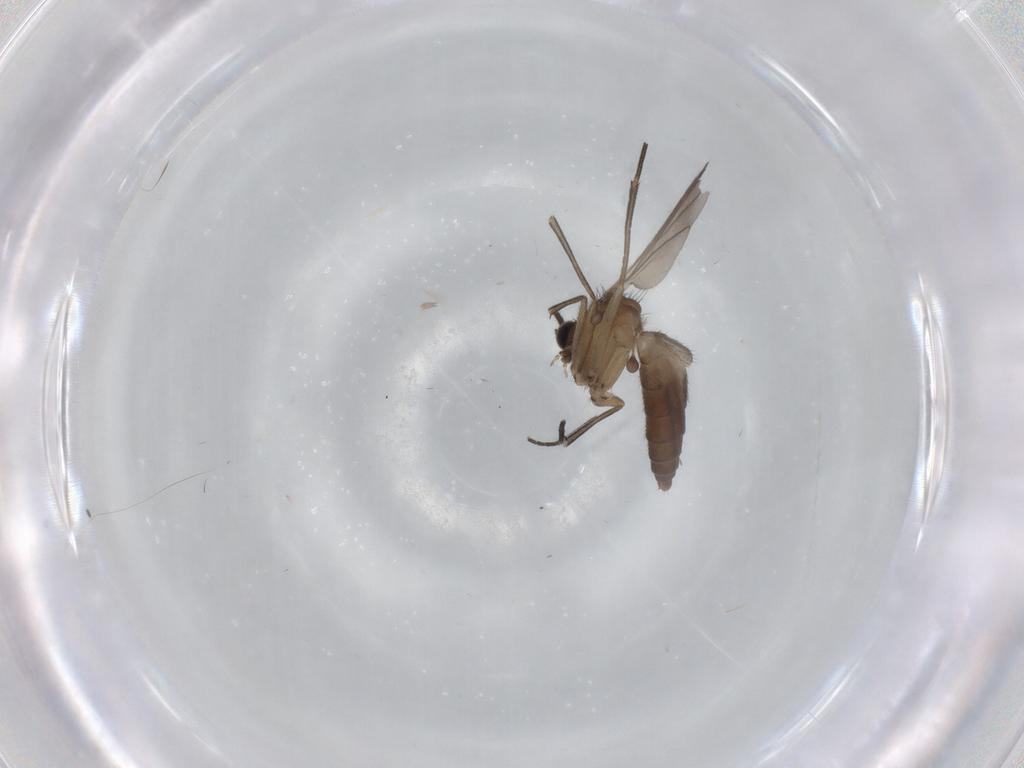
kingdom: Animalia
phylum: Arthropoda
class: Insecta
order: Diptera
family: Keroplatidae
